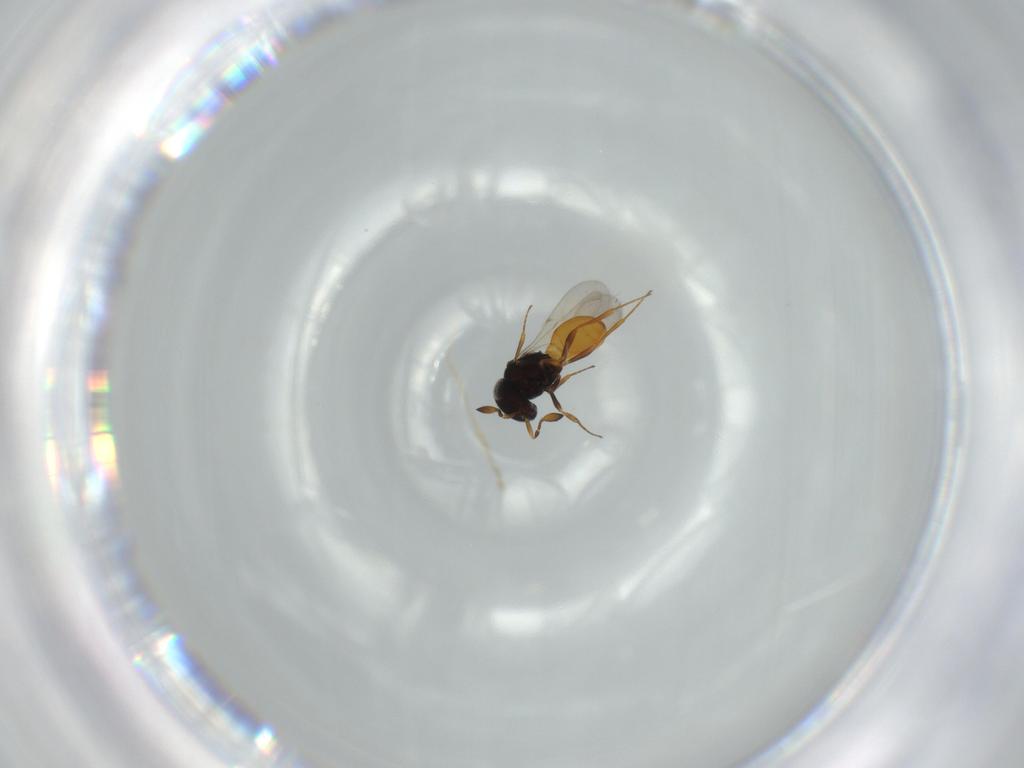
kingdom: Animalia
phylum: Arthropoda
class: Insecta
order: Hymenoptera
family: Scelionidae
